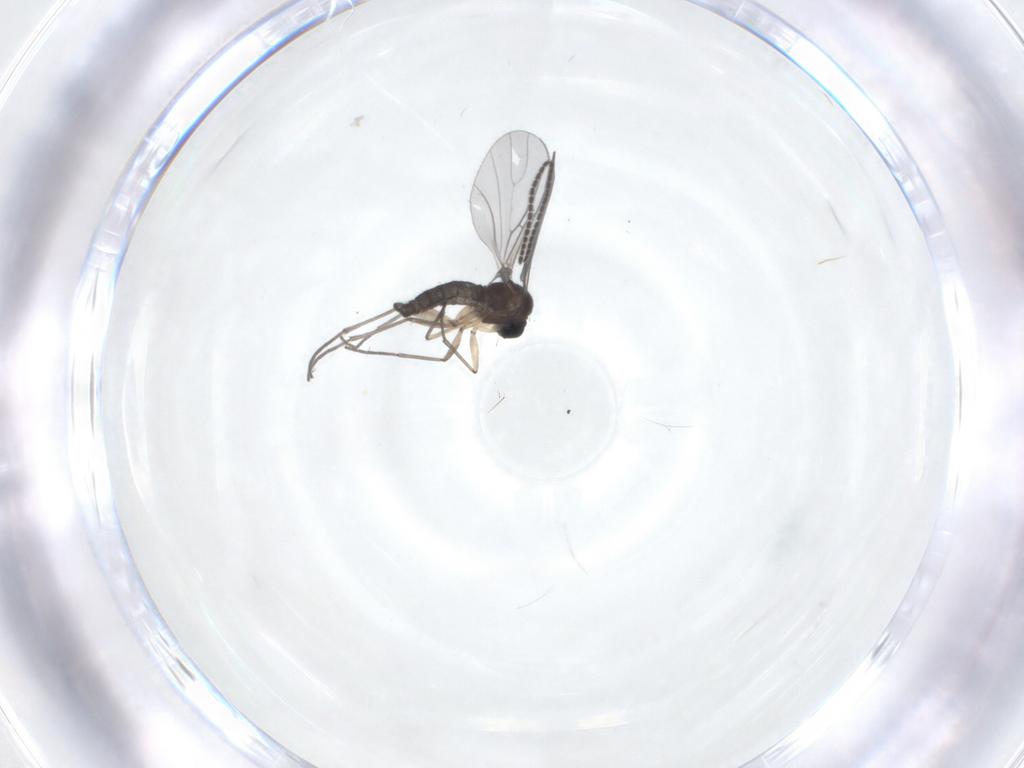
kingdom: Animalia
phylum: Arthropoda
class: Insecta
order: Diptera
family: Sciaridae
